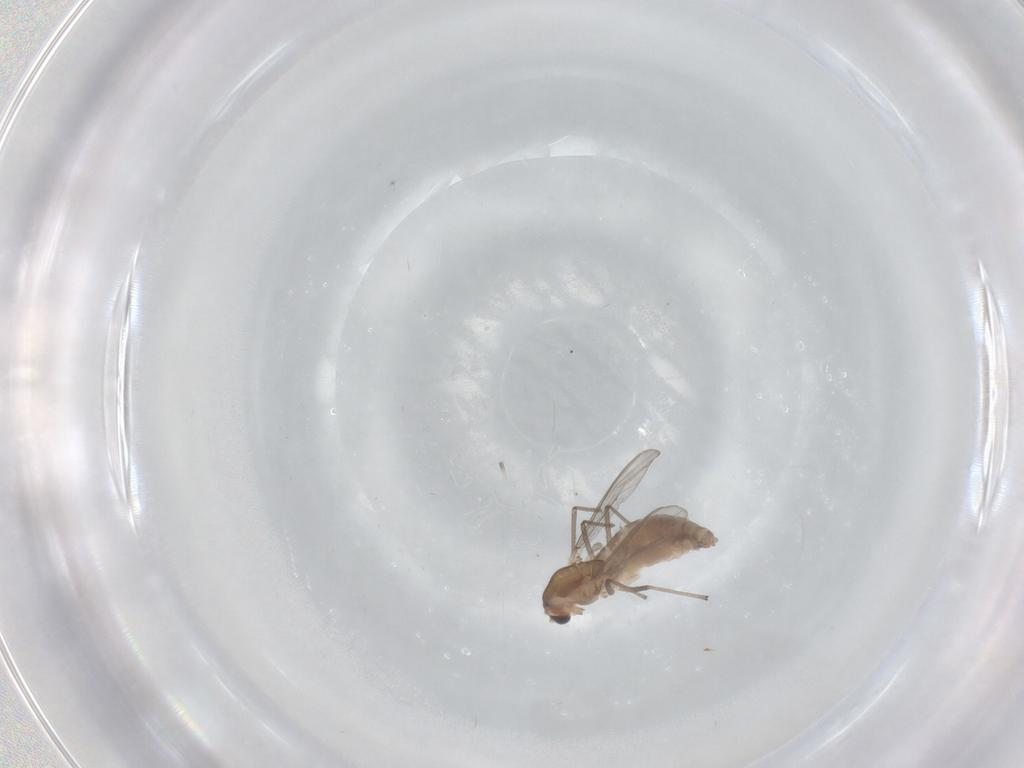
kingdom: Animalia
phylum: Arthropoda
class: Insecta
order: Diptera
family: Chironomidae
